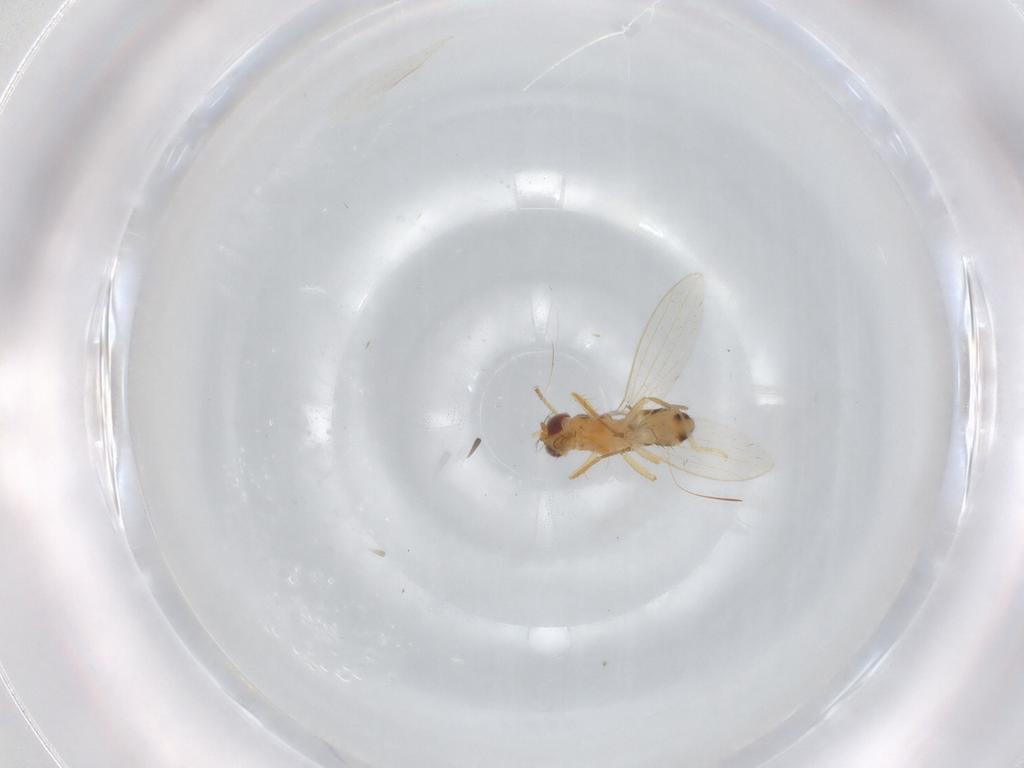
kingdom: Animalia
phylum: Arthropoda
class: Insecta
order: Diptera
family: Periscelididae
